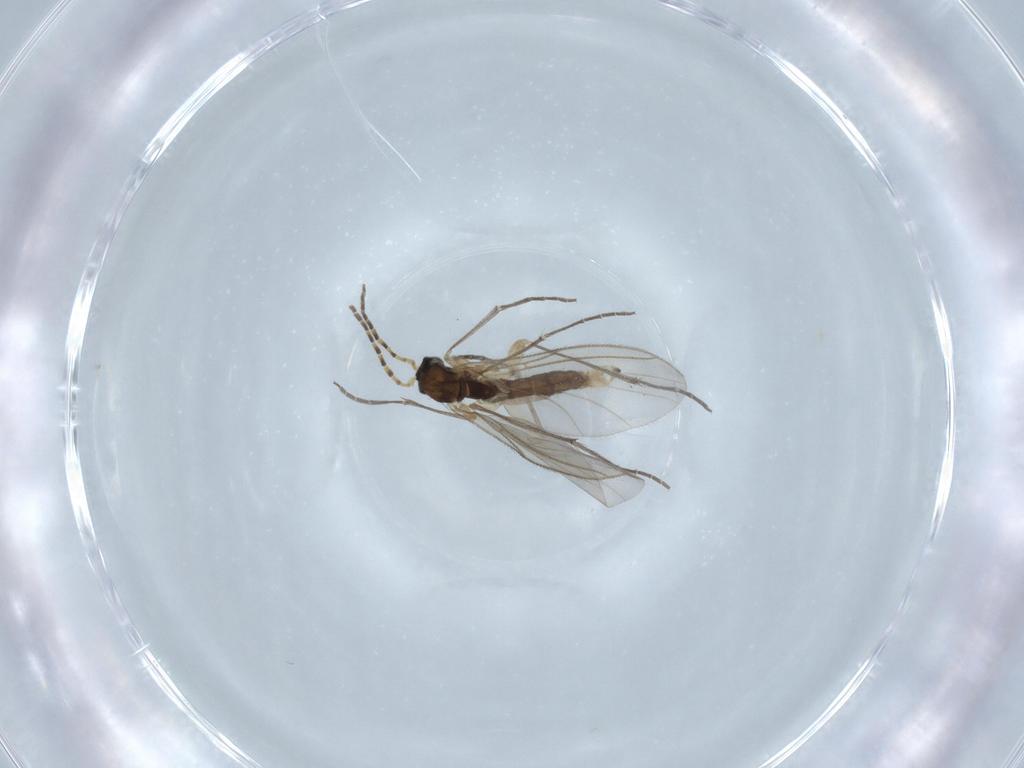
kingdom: Animalia
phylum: Arthropoda
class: Insecta
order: Diptera
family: Sciaridae
